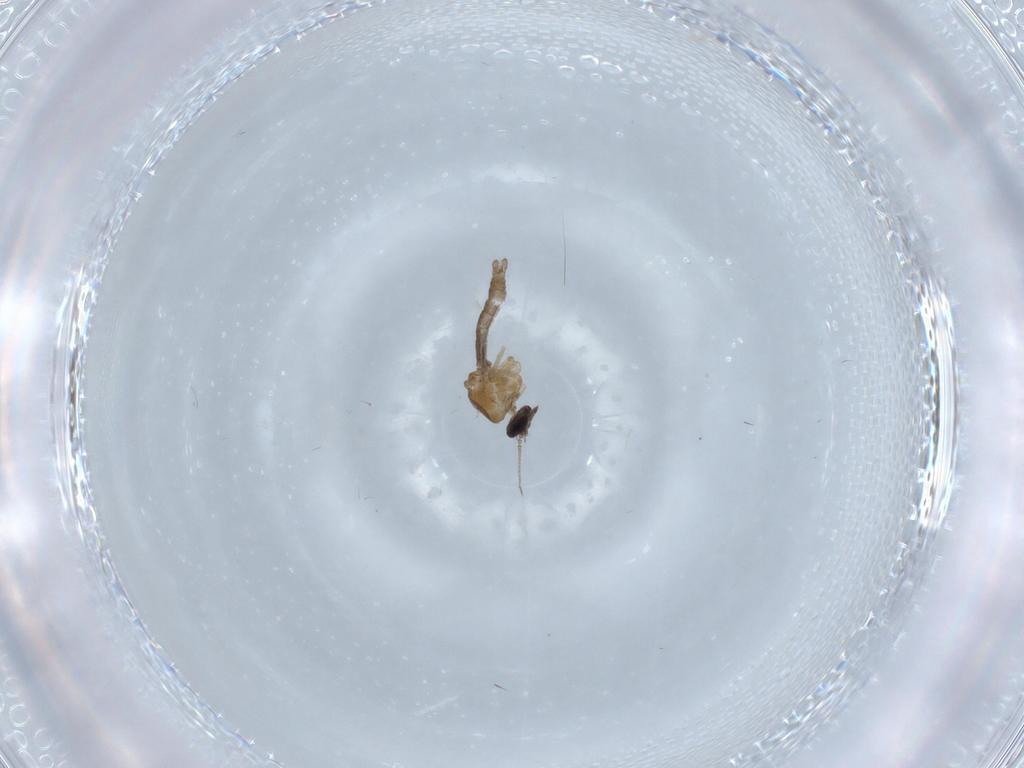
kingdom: Animalia
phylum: Arthropoda
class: Insecta
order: Diptera
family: Ceratopogonidae
